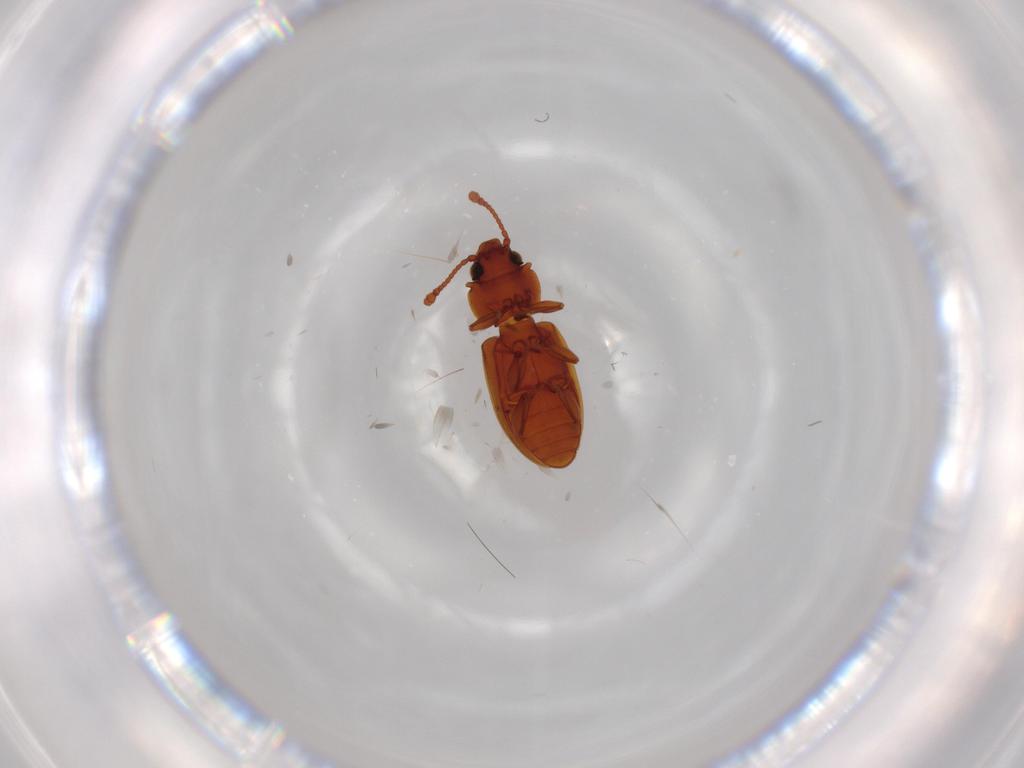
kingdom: Animalia
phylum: Arthropoda
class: Insecta
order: Coleoptera
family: Silvanidae
